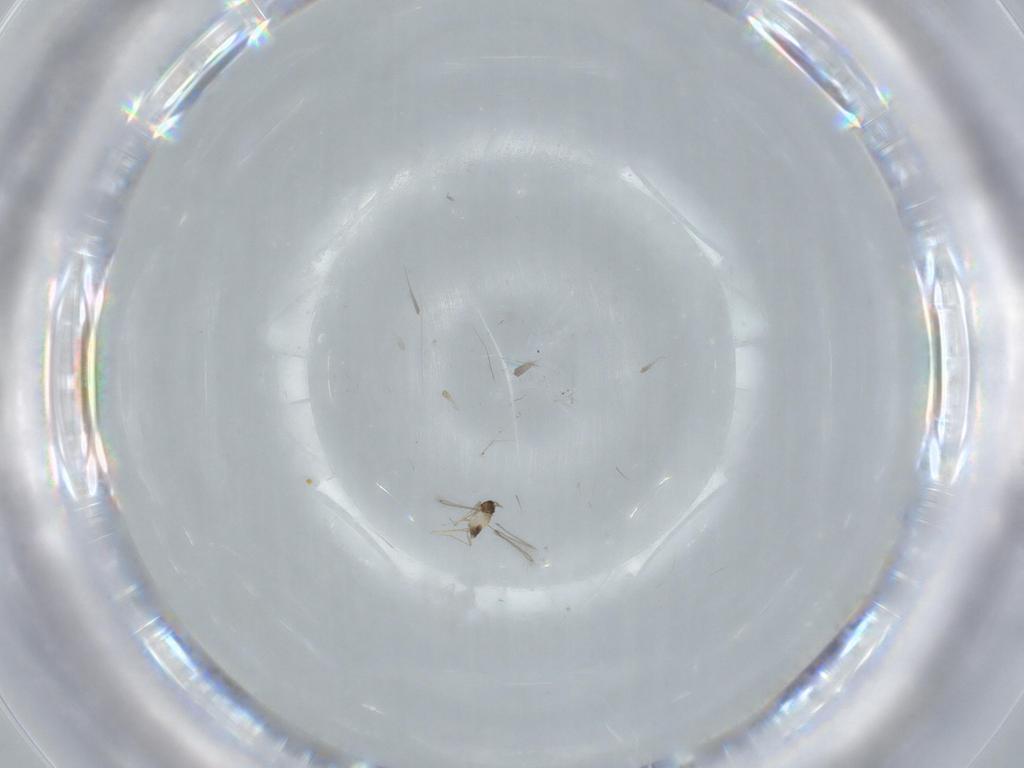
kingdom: Animalia
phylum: Arthropoda
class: Insecta
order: Hymenoptera
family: Mymaridae
